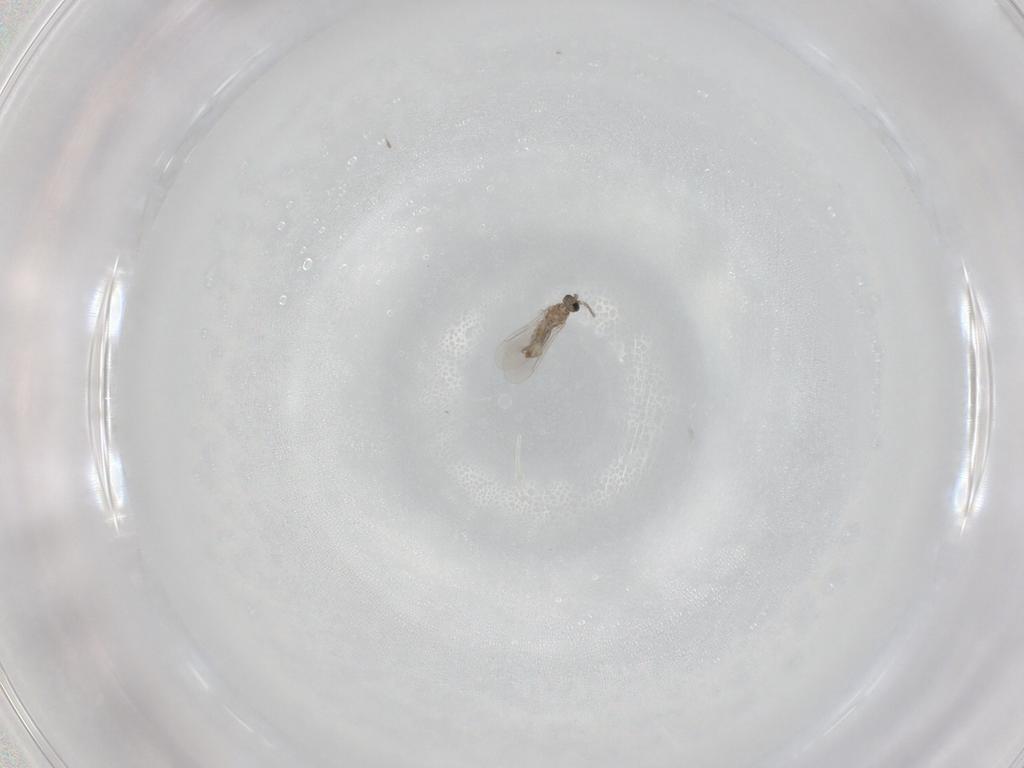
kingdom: Animalia
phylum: Arthropoda
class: Insecta
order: Diptera
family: Cecidomyiidae
